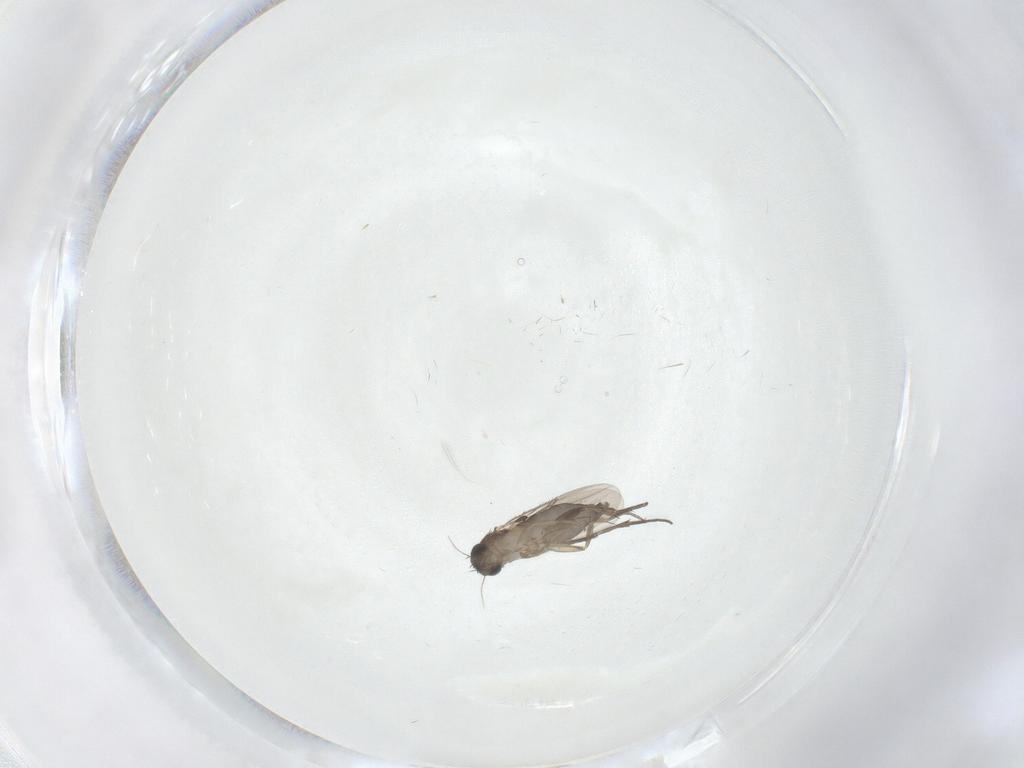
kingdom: Animalia
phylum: Arthropoda
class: Insecta
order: Diptera
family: Phoridae
